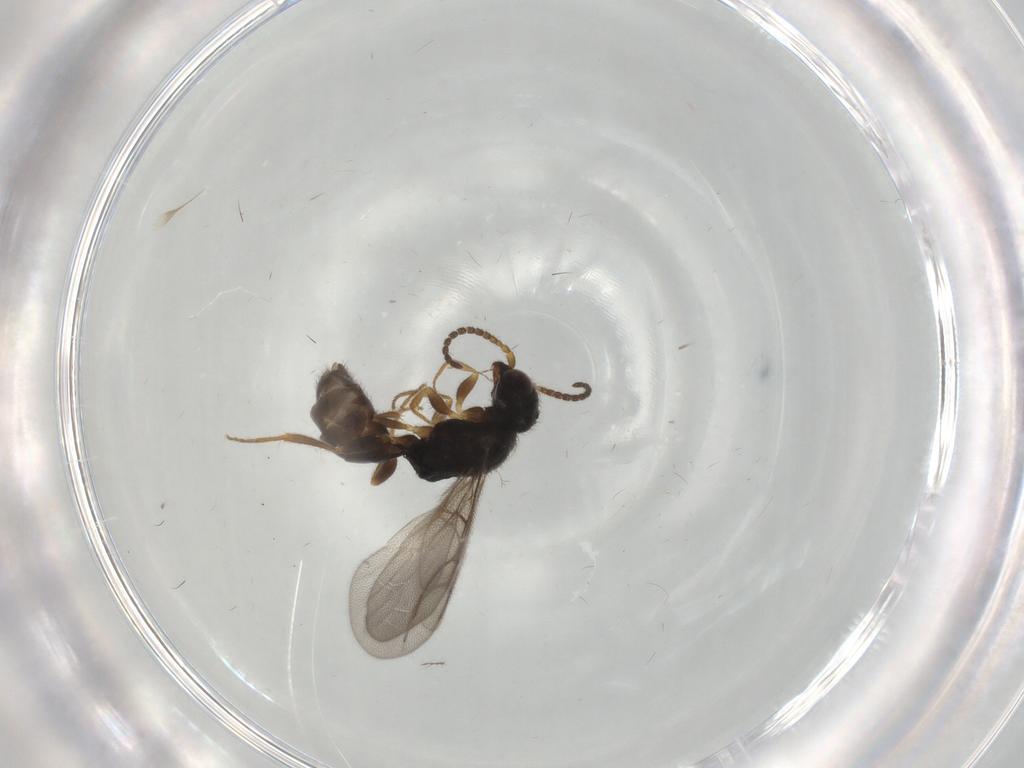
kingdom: Animalia
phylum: Arthropoda
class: Insecta
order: Hymenoptera
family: Bethylidae
